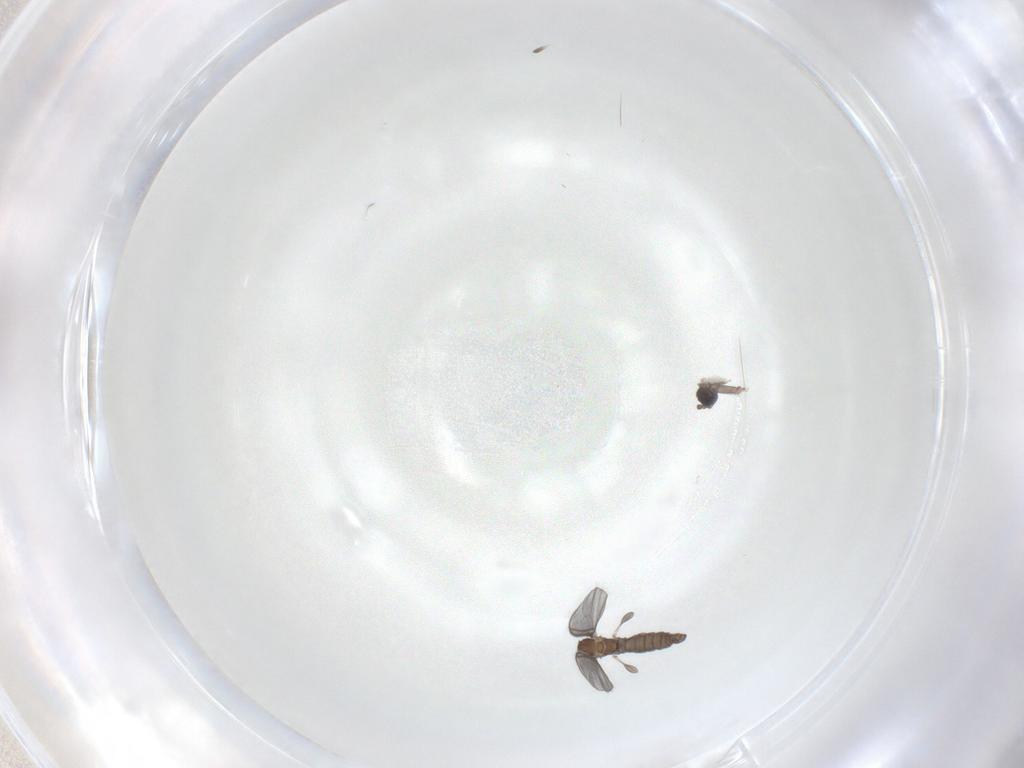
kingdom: Animalia
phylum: Arthropoda
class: Insecta
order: Diptera
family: Sciaridae
